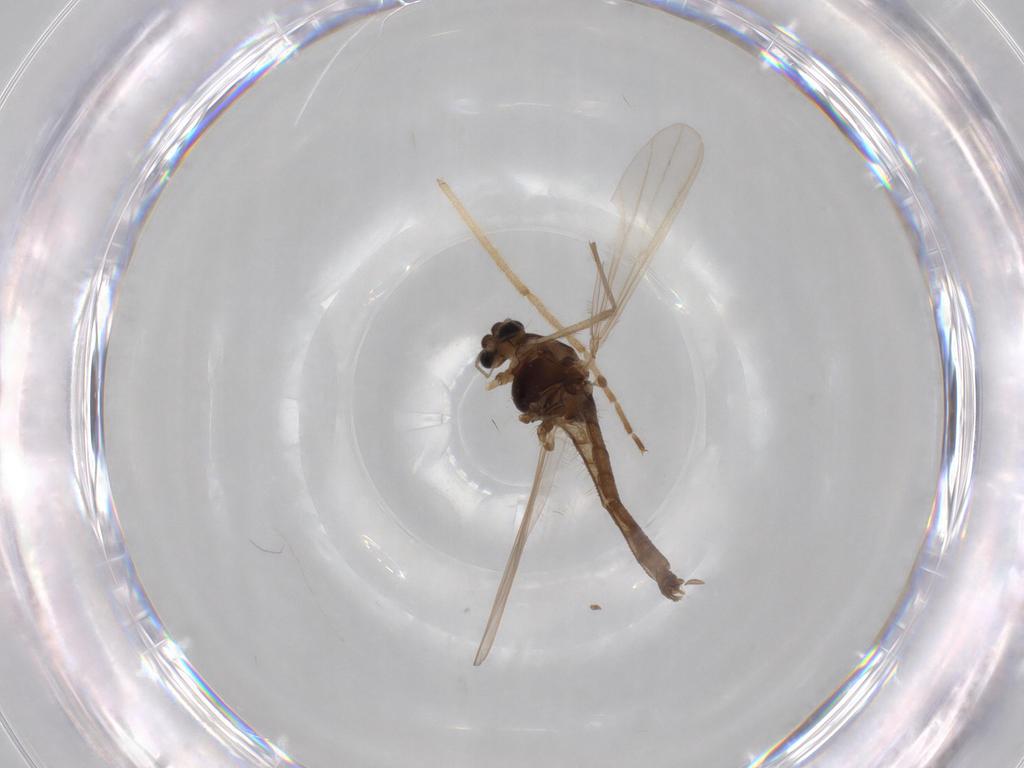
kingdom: Animalia
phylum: Arthropoda
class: Insecta
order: Diptera
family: Chironomidae
